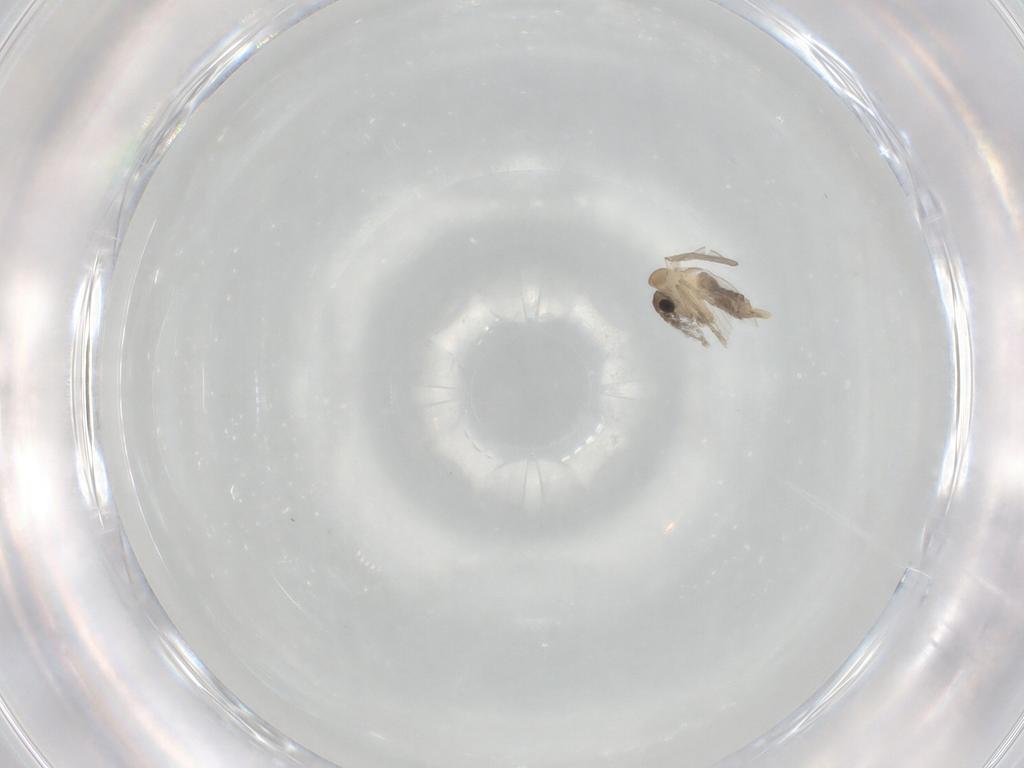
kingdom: Animalia
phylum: Arthropoda
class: Insecta
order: Diptera
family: Psychodidae
